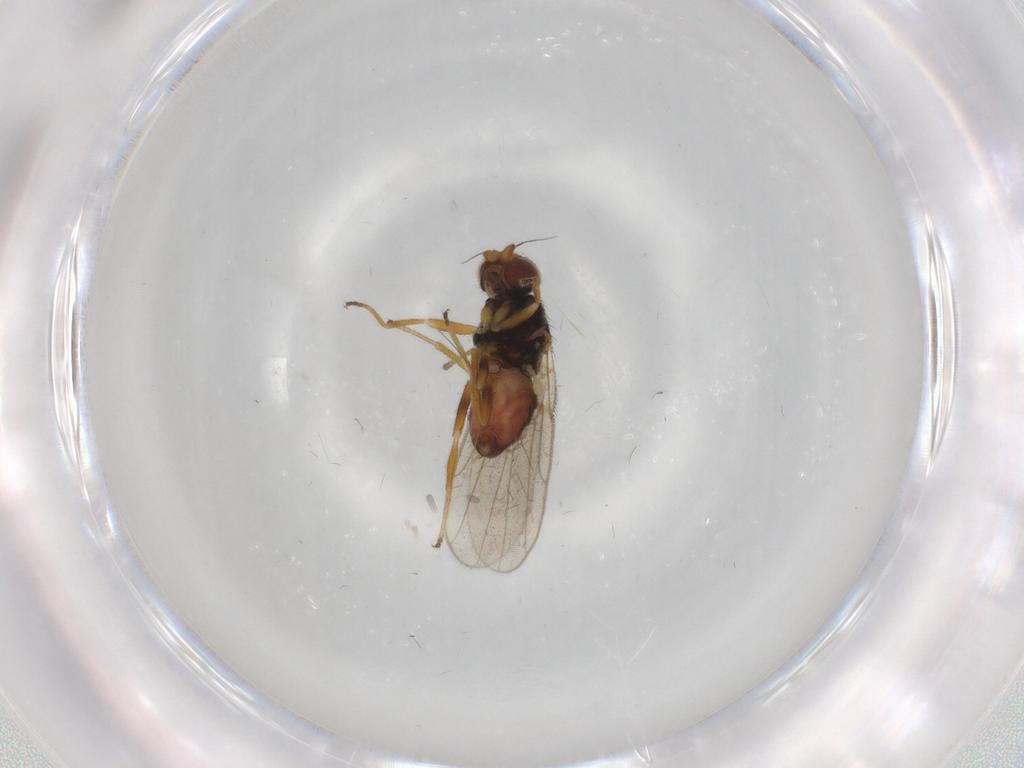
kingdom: Animalia
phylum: Arthropoda
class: Insecta
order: Diptera
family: Chloropidae
